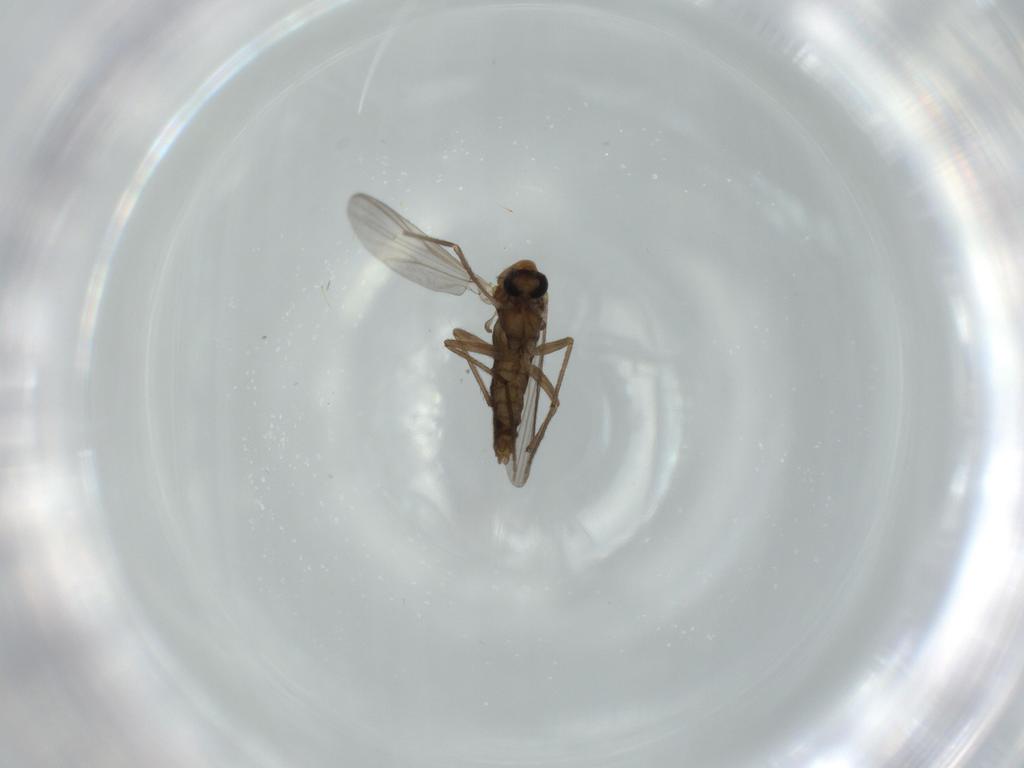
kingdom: Animalia
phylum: Arthropoda
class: Insecta
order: Diptera
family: Chironomidae
